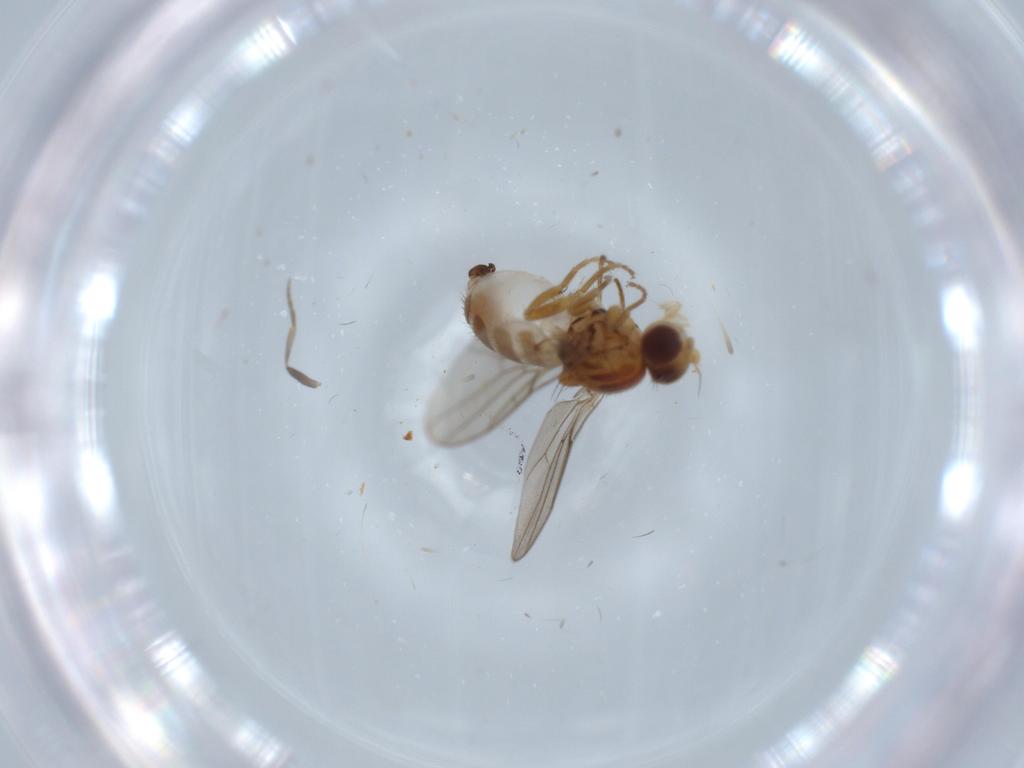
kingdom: Animalia
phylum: Arthropoda
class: Insecta
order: Diptera
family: Chloropidae
